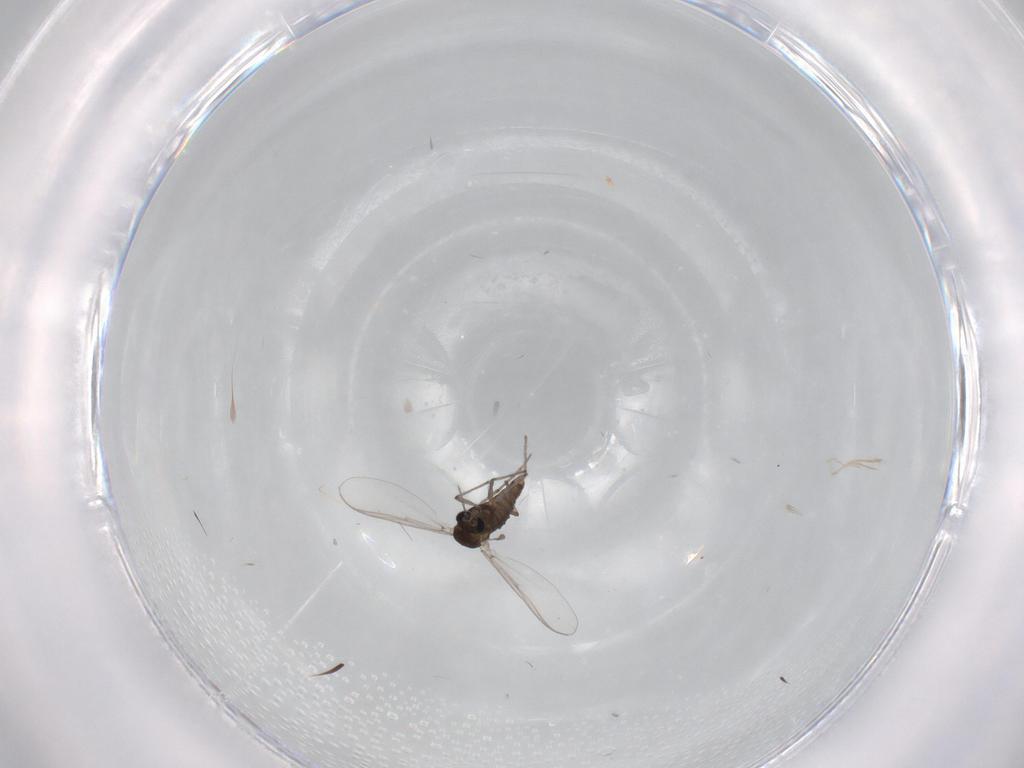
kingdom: Animalia
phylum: Arthropoda
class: Insecta
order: Diptera
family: Chironomidae
